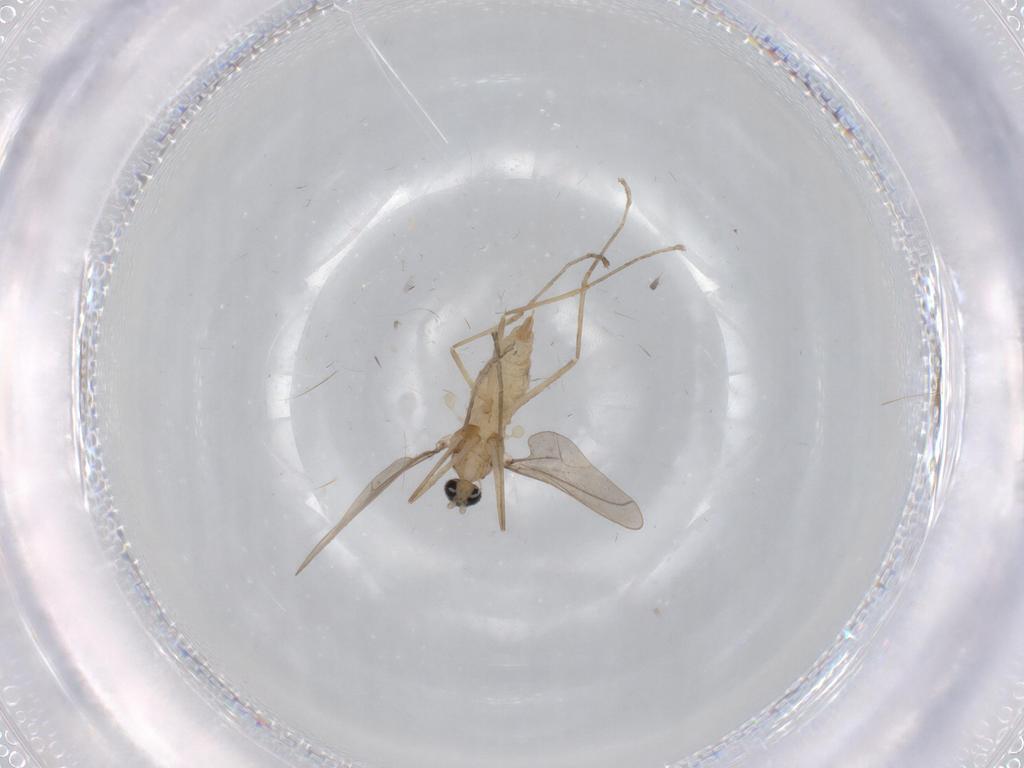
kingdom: Animalia
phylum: Arthropoda
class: Insecta
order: Diptera
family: Cecidomyiidae
